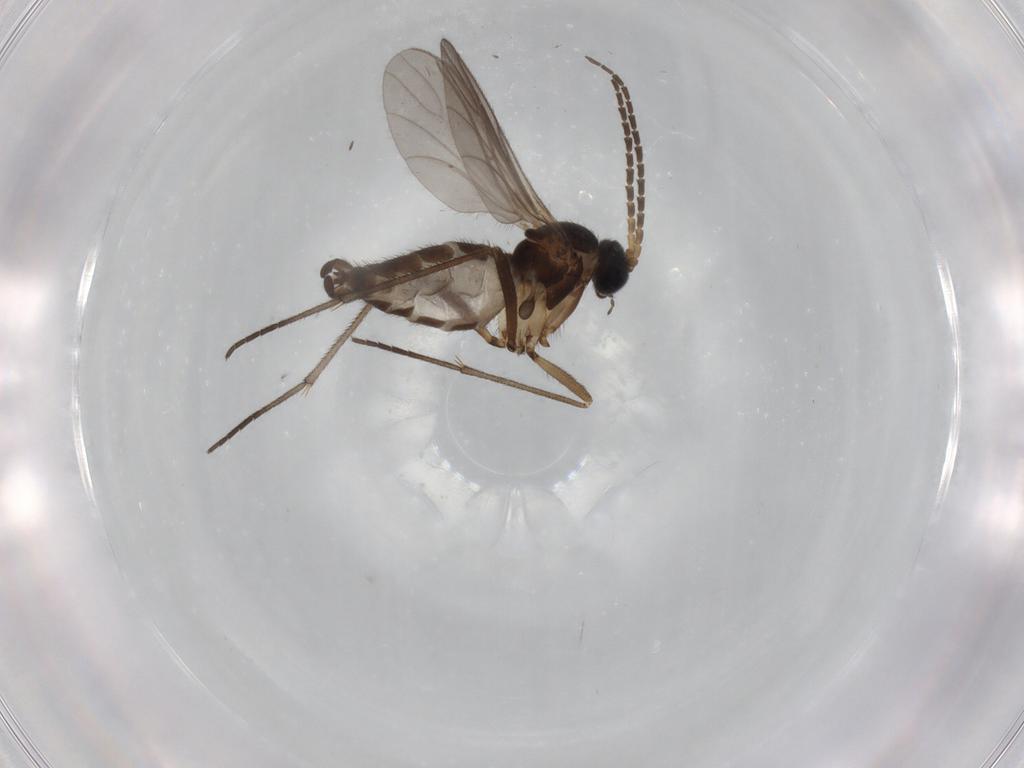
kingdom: Animalia
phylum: Arthropoda
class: Insecta
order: Diptera
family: Sciaridae
